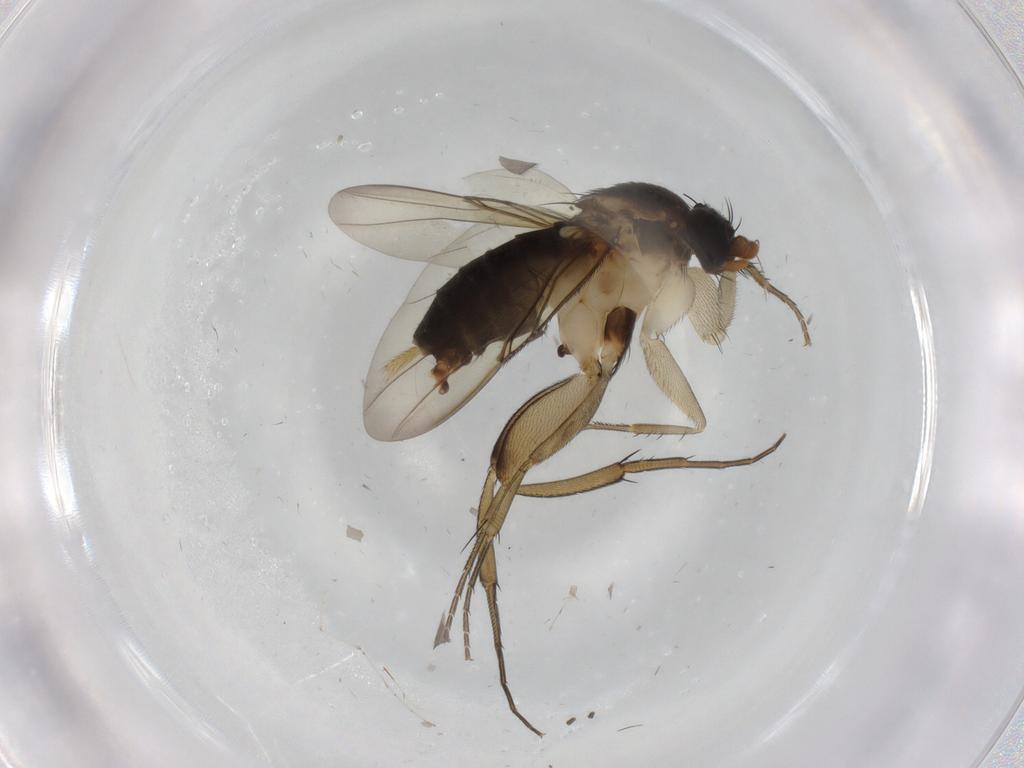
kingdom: Animalia
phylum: Arthropoda
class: Insecta
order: Diptera
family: Phoridae
